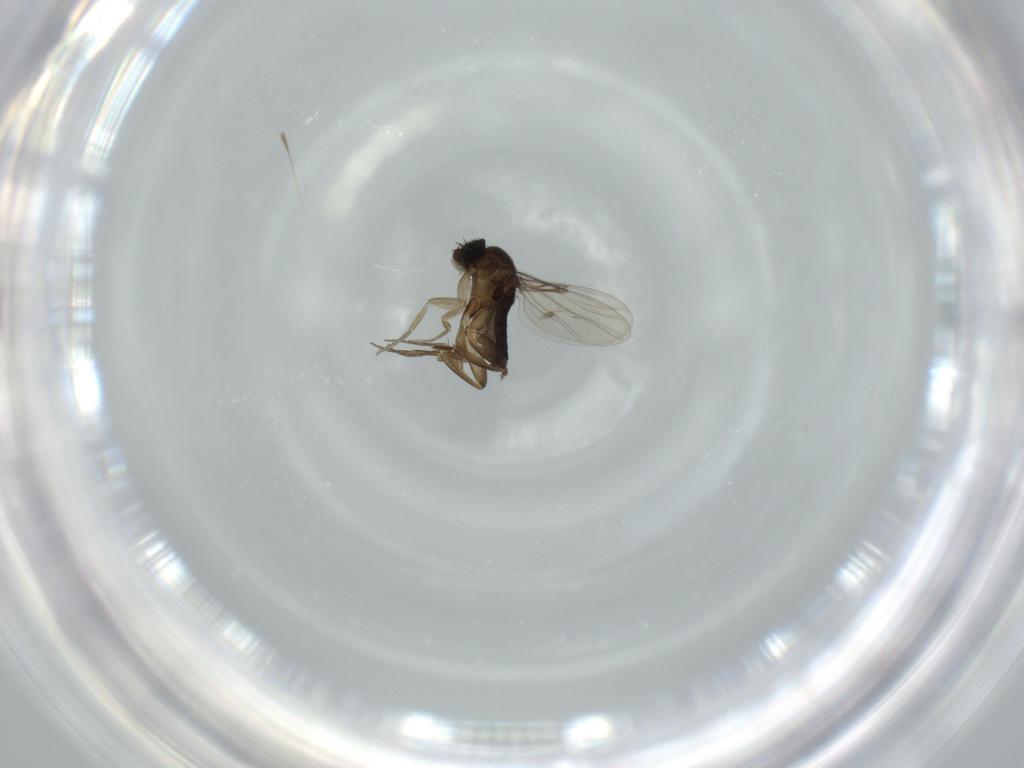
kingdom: Animalia
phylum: Arthropoda
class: Insecta
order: Diptera
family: Phoridae
